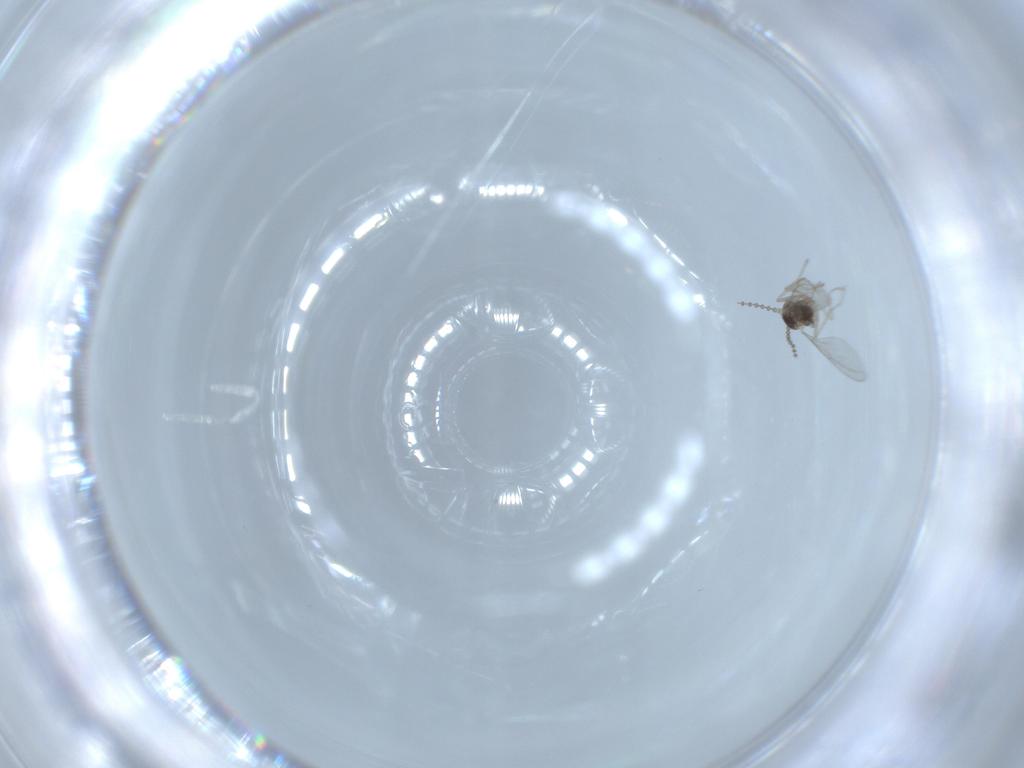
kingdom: Animalia
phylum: Arthropoda
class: Insecta
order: Diptera
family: Cecidomyiidae
